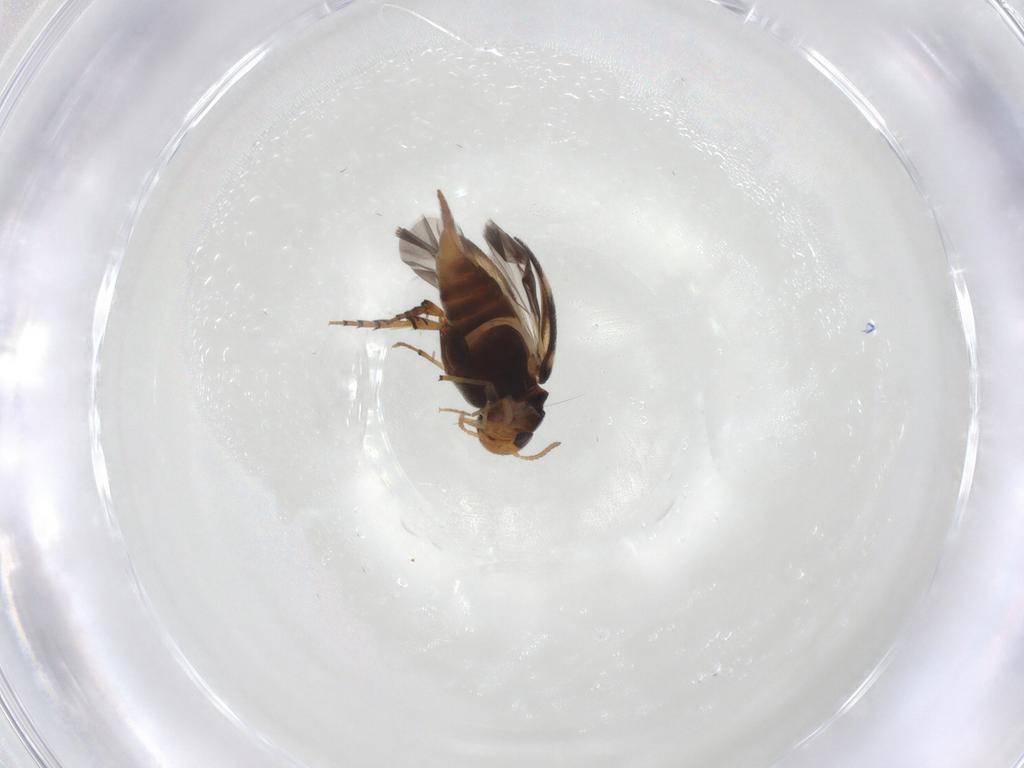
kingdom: Animalia
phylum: Arthropoda
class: Insecta
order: Coleoptera
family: Mordellidae
